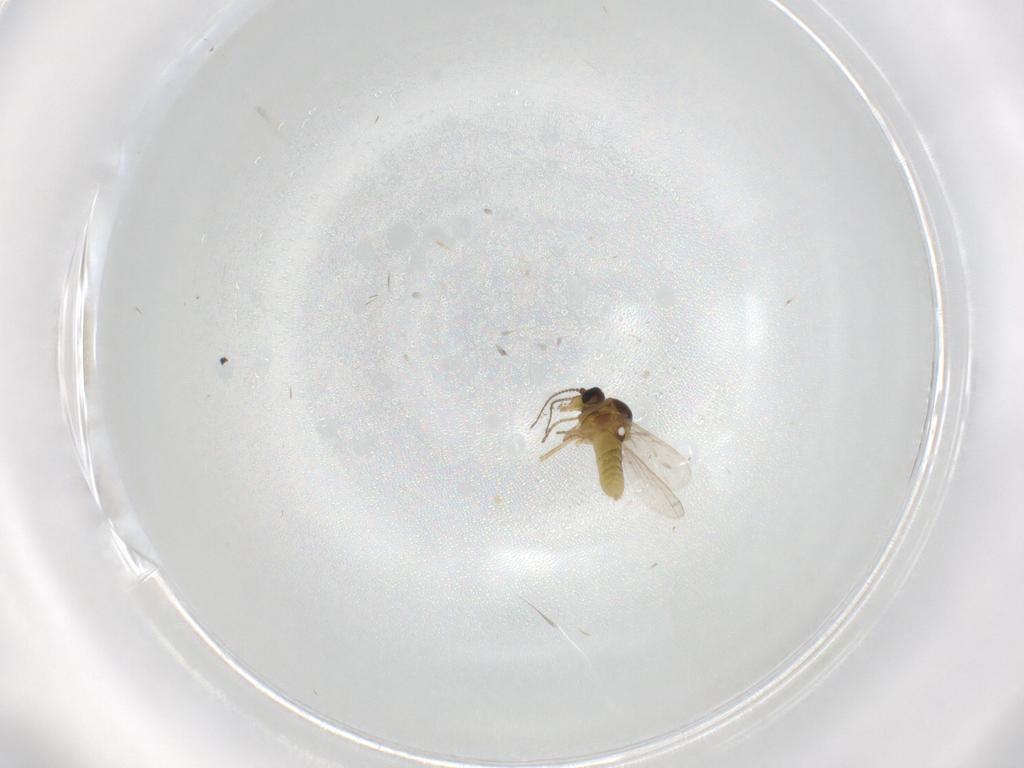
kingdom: Animalia
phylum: Arthropoda
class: Insecta
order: Diptera
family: Ceratopogonidae
